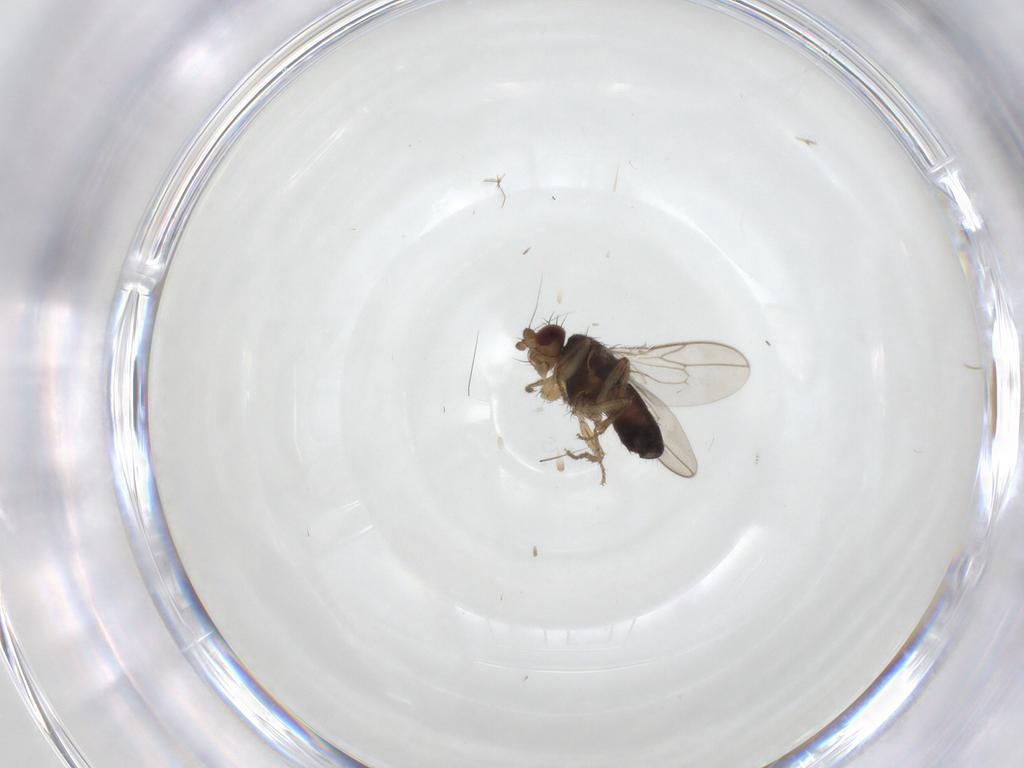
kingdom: Animalia
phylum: Arthropoda
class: Insecta
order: Diptera
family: Sphaeroceridae
